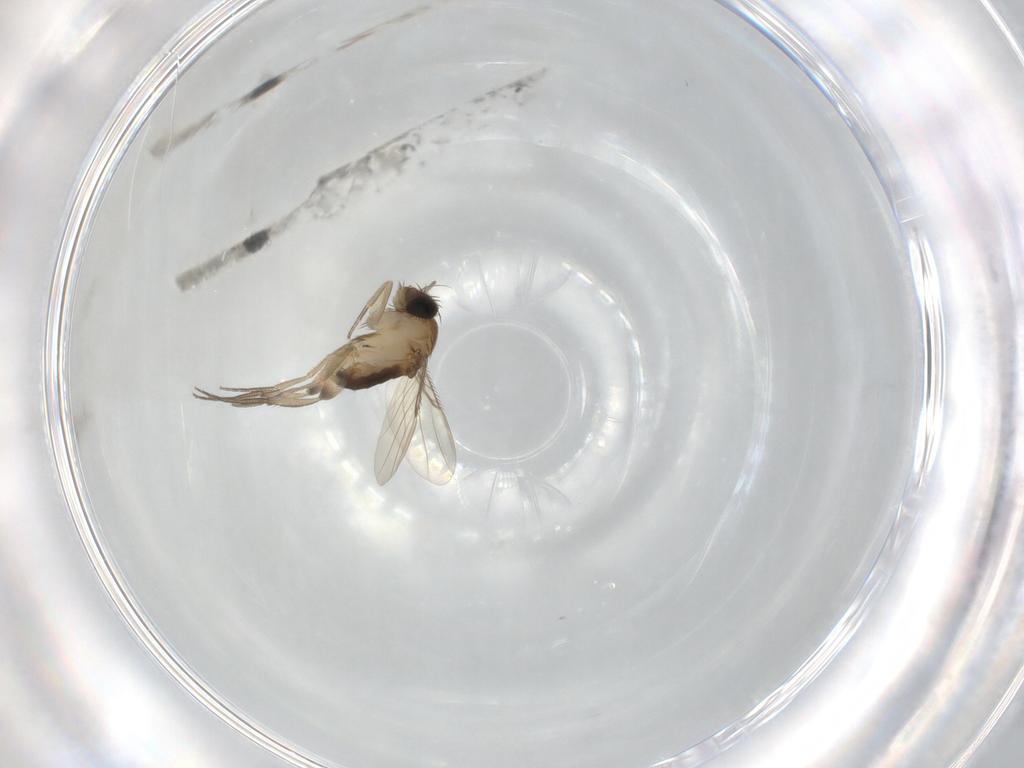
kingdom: Animalia
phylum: Arthropoda
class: Insecta
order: Diptera
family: Phoridae
